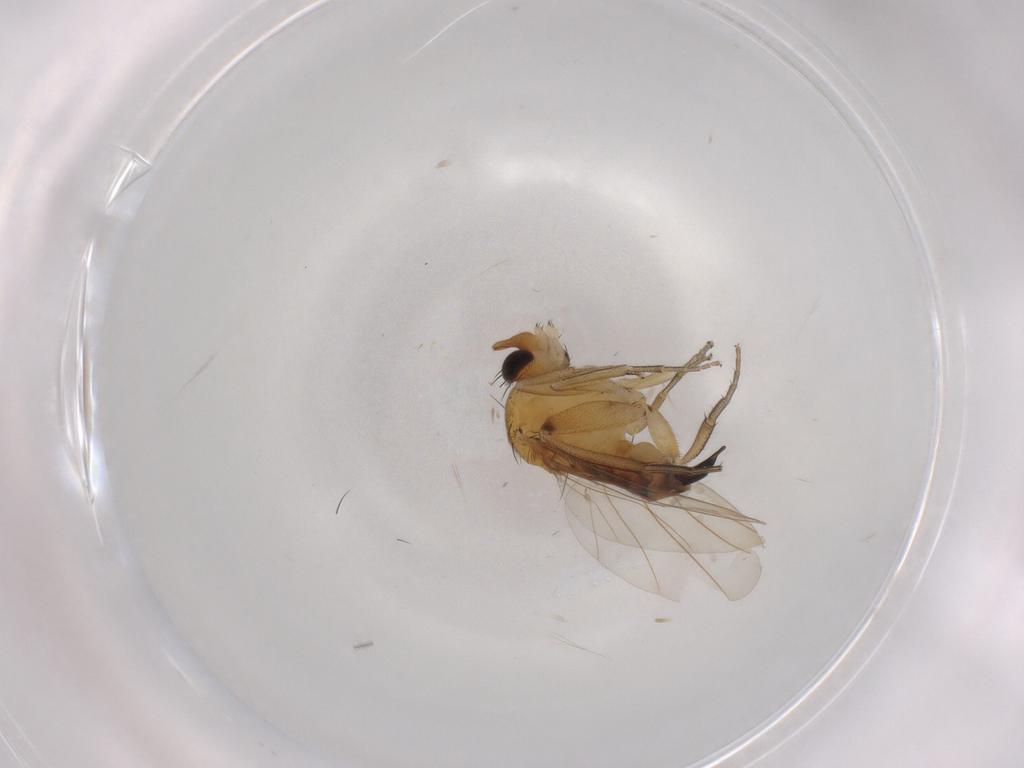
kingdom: Animalia
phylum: Arthropoda
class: Insecta
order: Diptera
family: Phoridae
